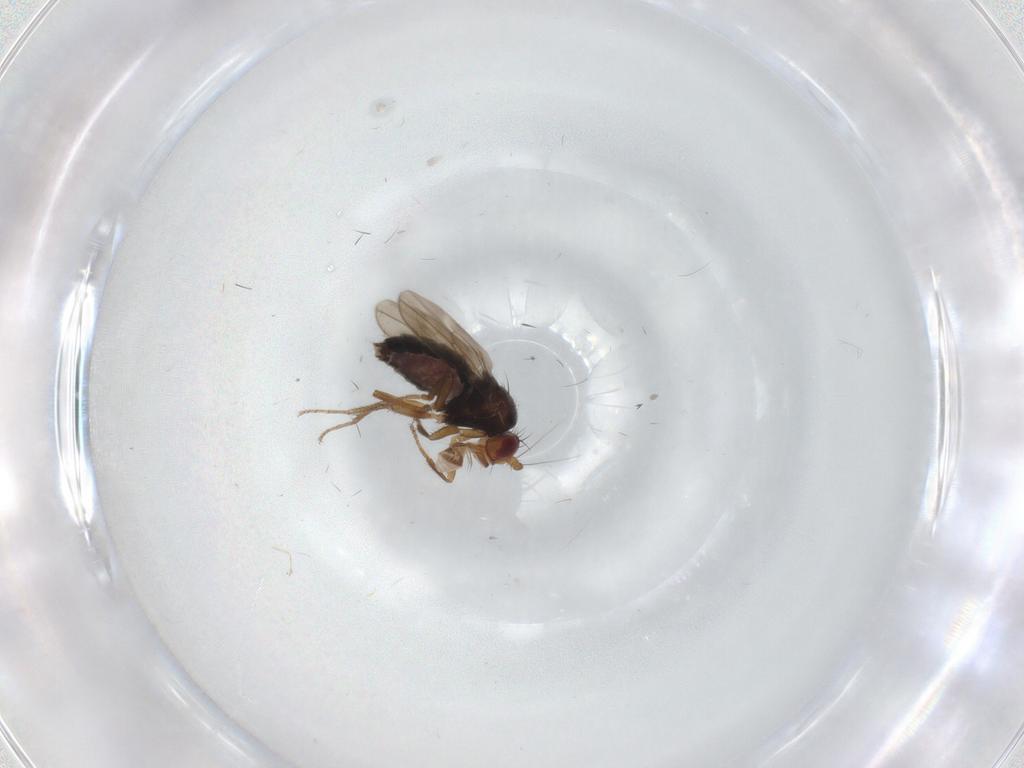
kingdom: Animalia
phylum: Arthropoda
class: Insecta
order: Diptera
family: Sphaeroceridae
